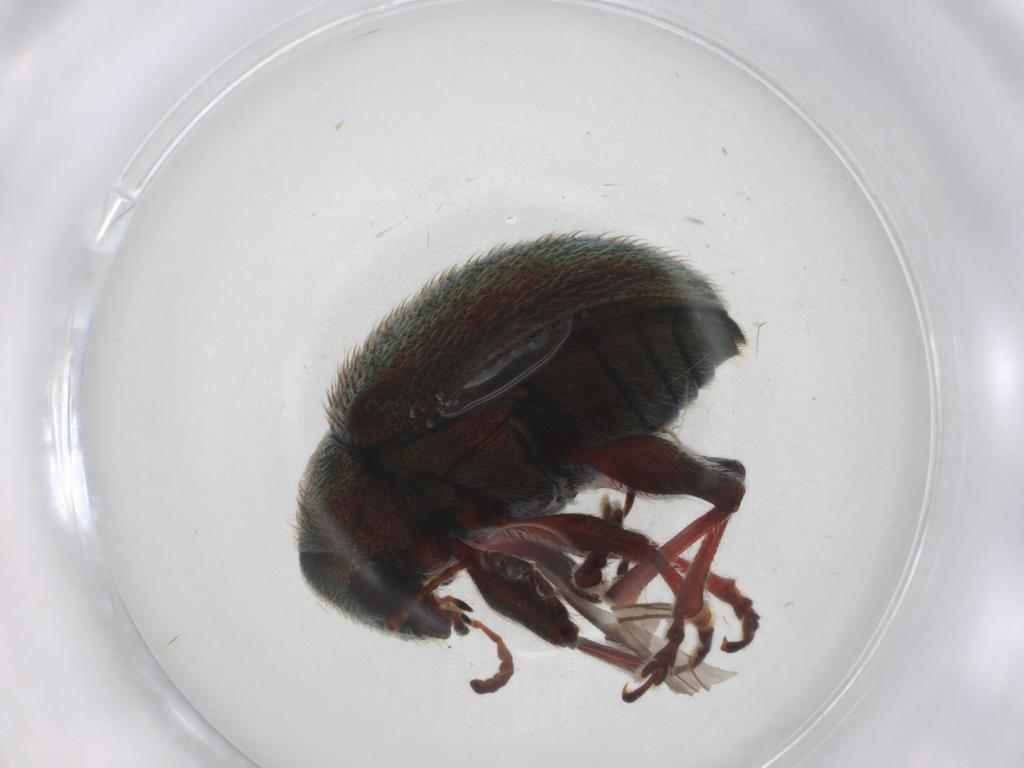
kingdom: Animalia
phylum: Arthropoda
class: Insecta
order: Coleoptera
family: Chrysomelidae
